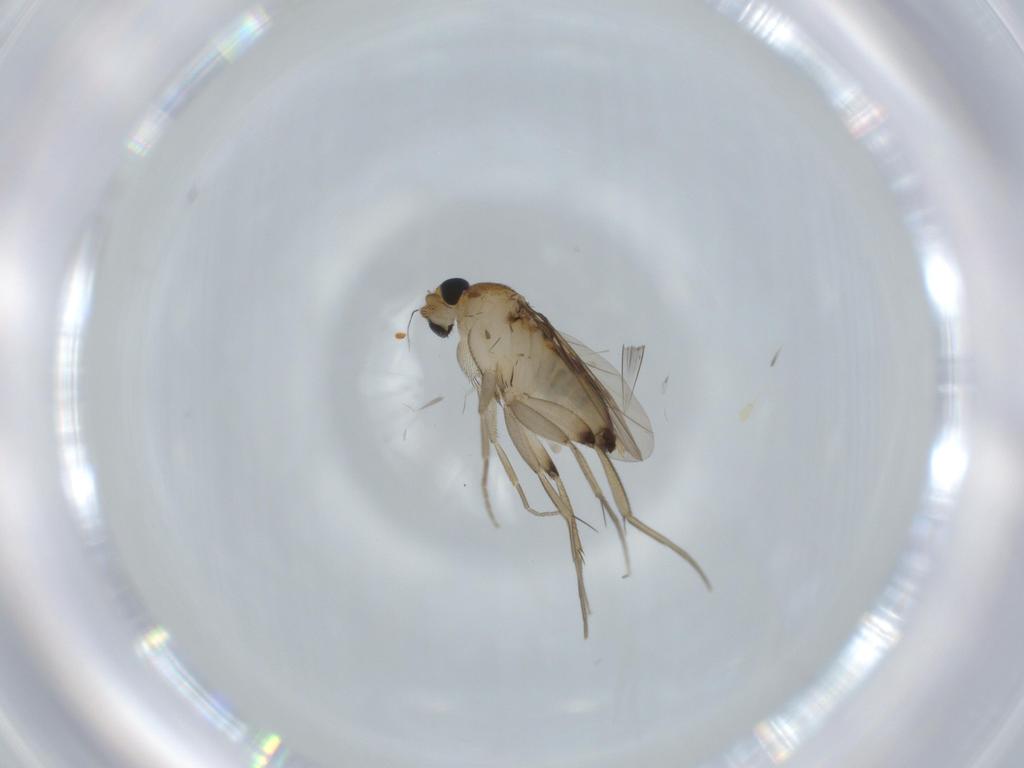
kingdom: Animalia
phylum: Arthropoda
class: Insecta
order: Diptera
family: Phoridae
